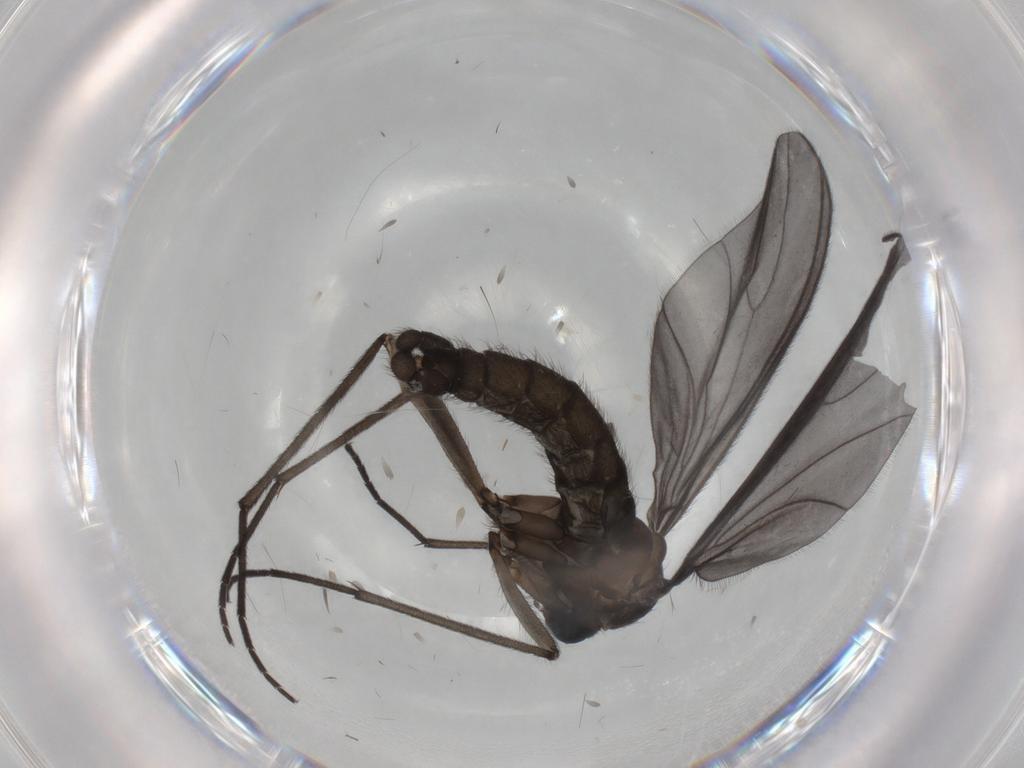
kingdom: Animalia
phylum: Arthropoda
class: Insecta
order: Diptera
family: Sciaridae
